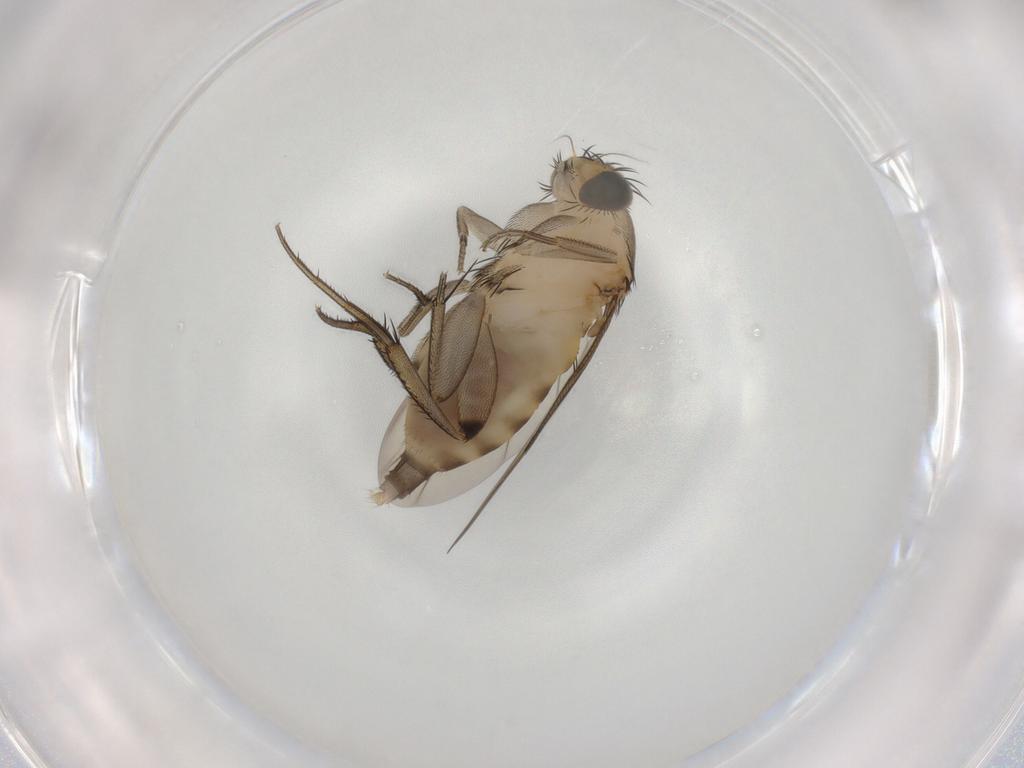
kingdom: Animalia
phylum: Arthropoda
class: Insecta
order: Diptera
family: Phoridae
